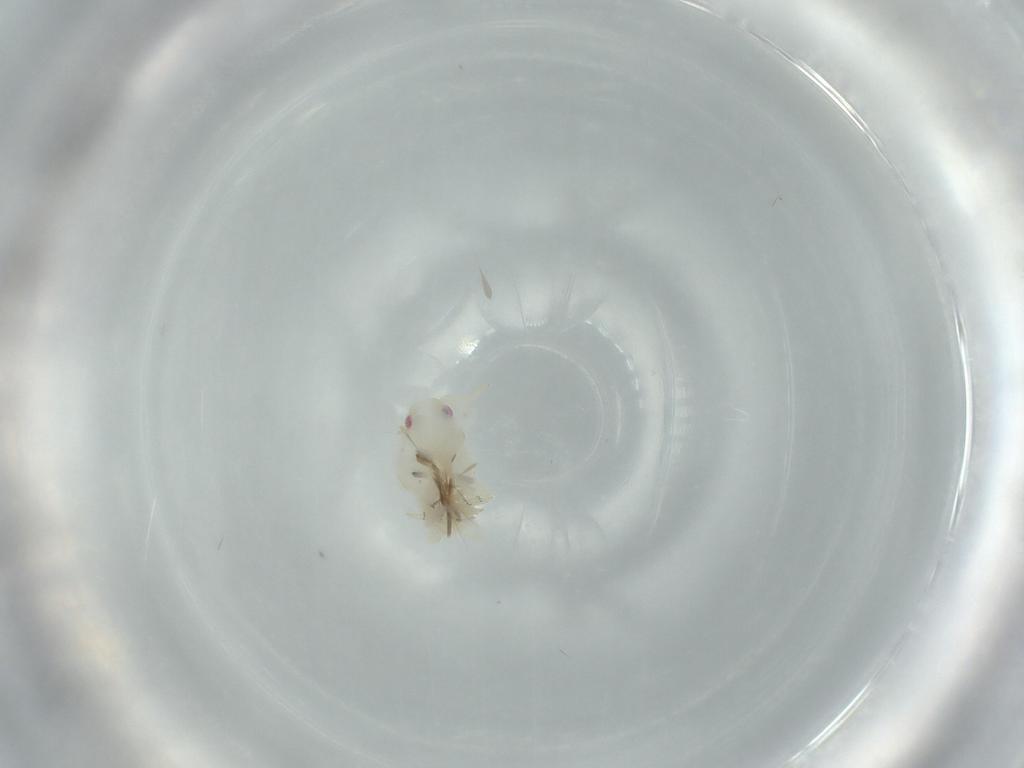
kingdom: Animalia
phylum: Arthropoda
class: Insecta
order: Hemiptera
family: Flatidae
